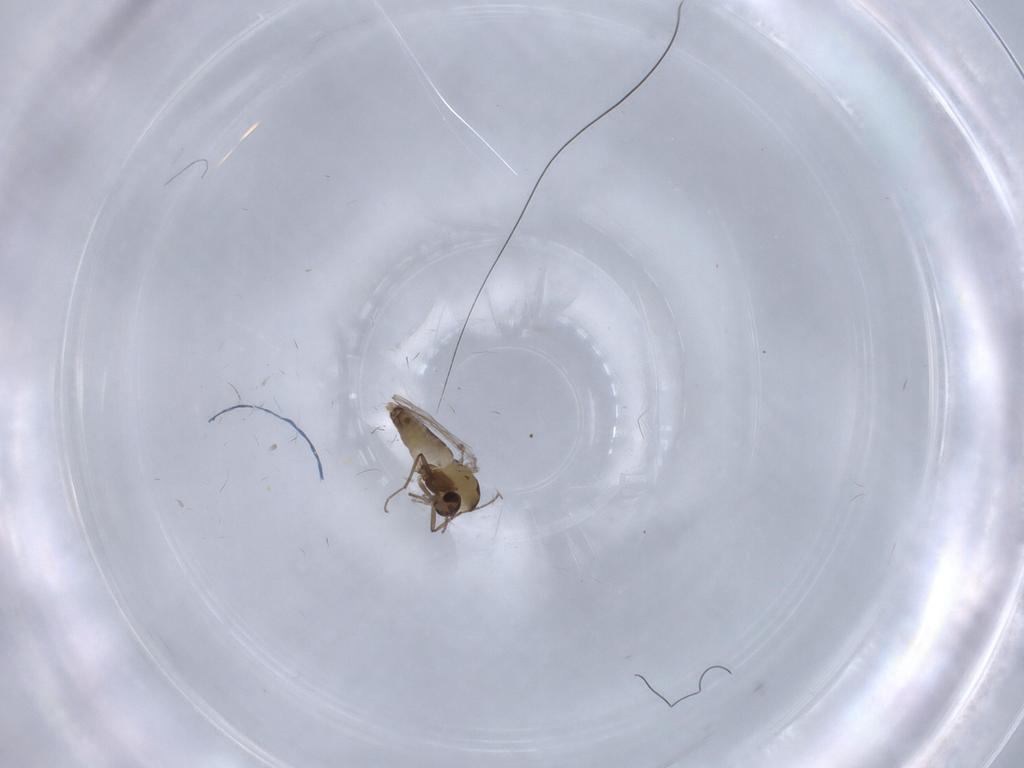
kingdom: Animalia
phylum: Arthropoda
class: Insecta
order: Diptera
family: Chironomidae
